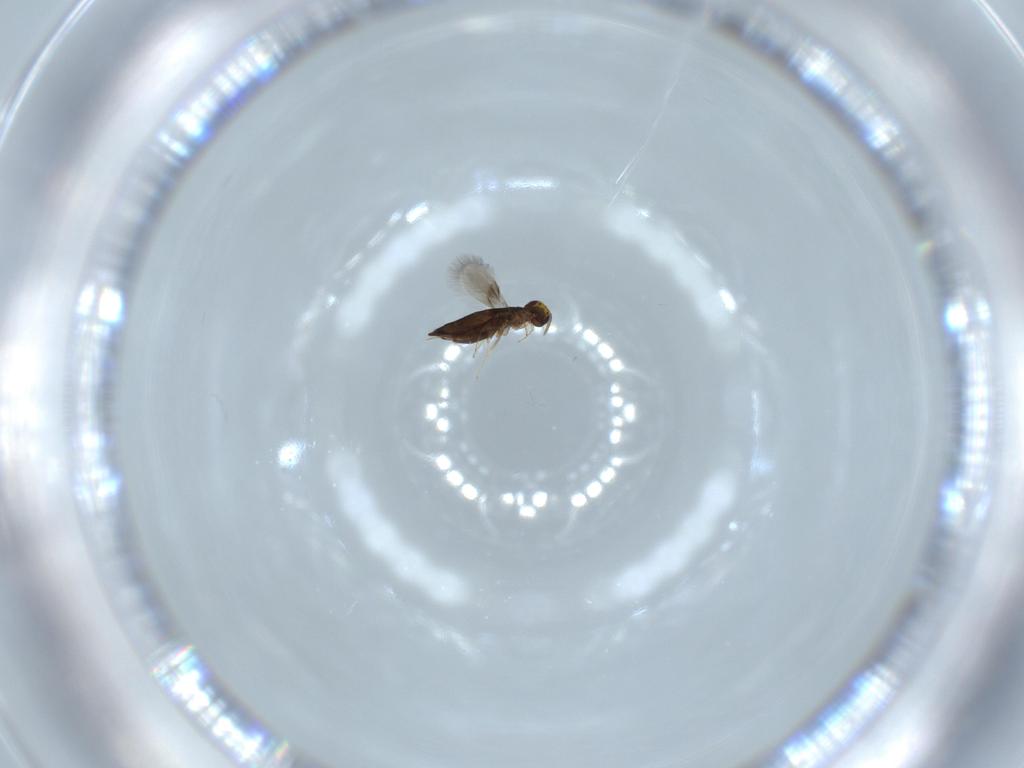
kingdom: Animalia
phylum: Arthropoda
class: Insecta
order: Hymenoptera
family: Signiphoridae
